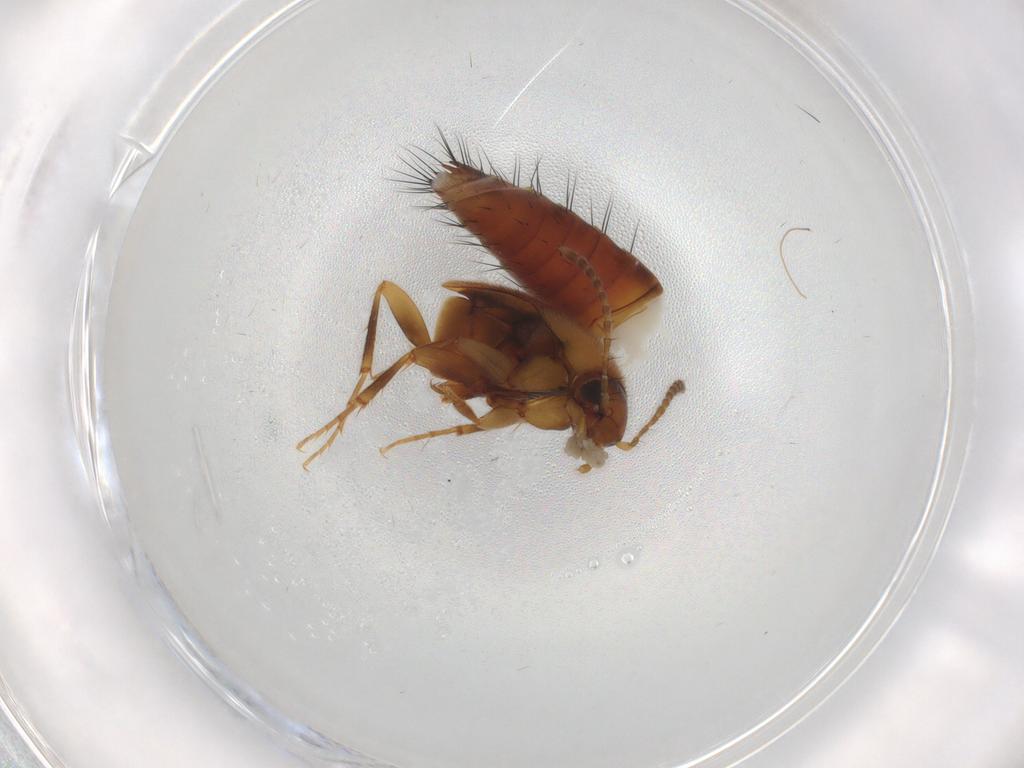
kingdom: Animalia
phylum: Arthropoda
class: Insecta
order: Coleoptera
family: Staphylinidae
